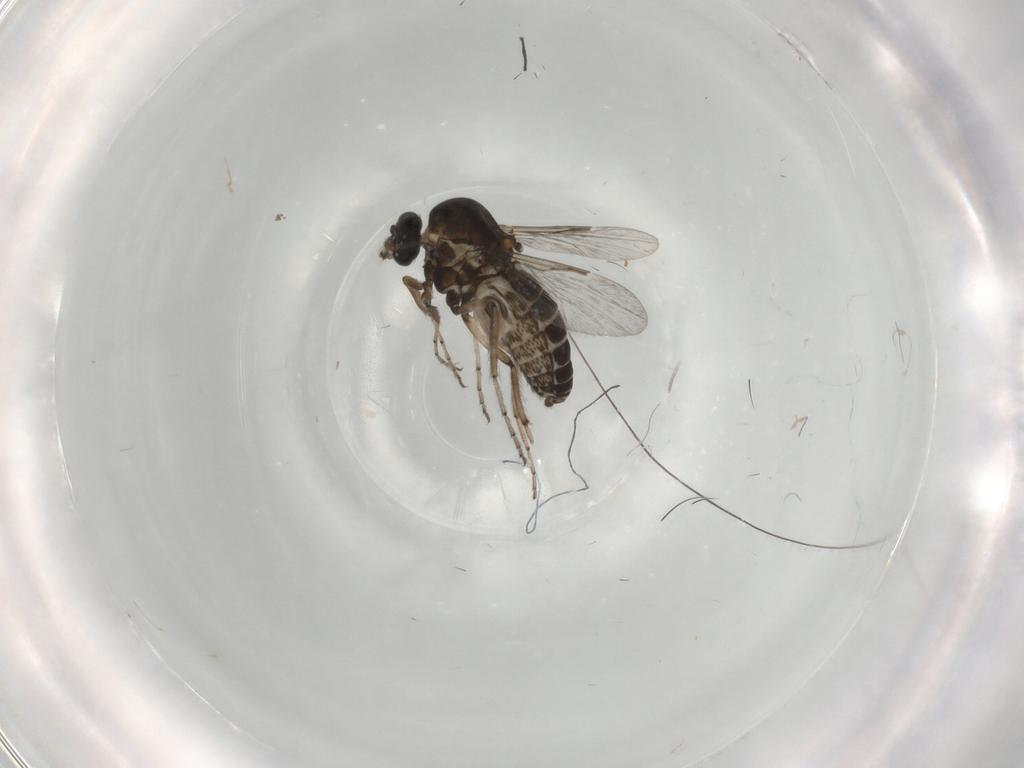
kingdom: Animalia
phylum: Arthropoda
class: Insecta
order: Diptera
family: Ceratopogonidae
